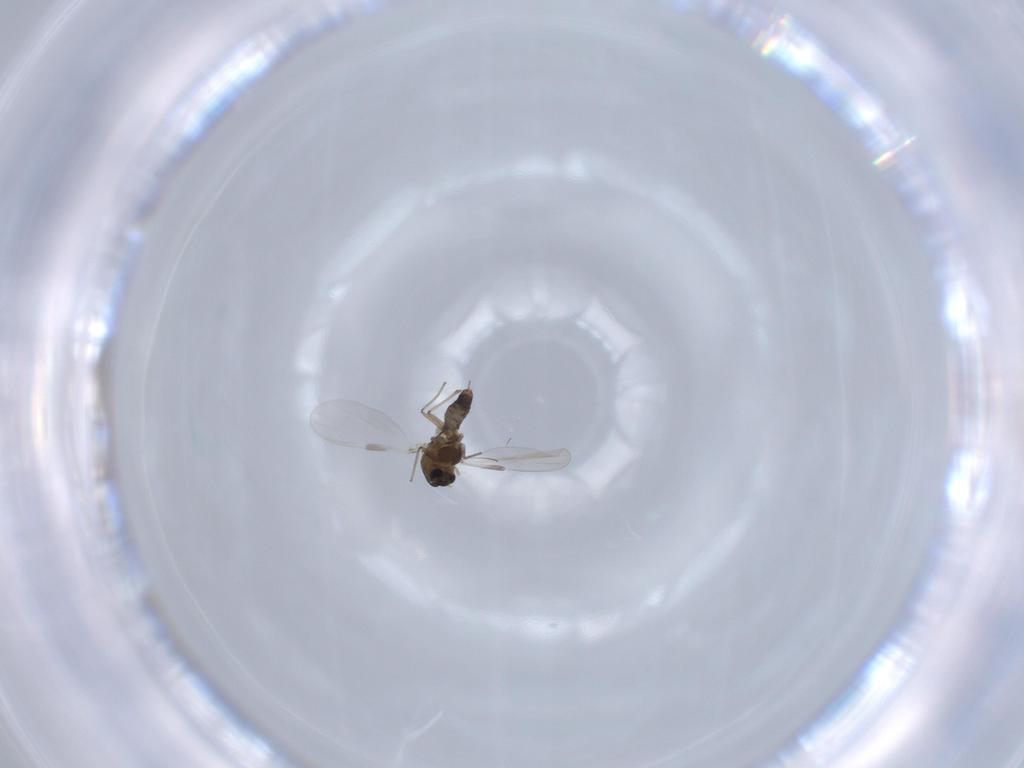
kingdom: Animalia
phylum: Arthropoda
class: Insecta
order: Diptera
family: Chironomidae
